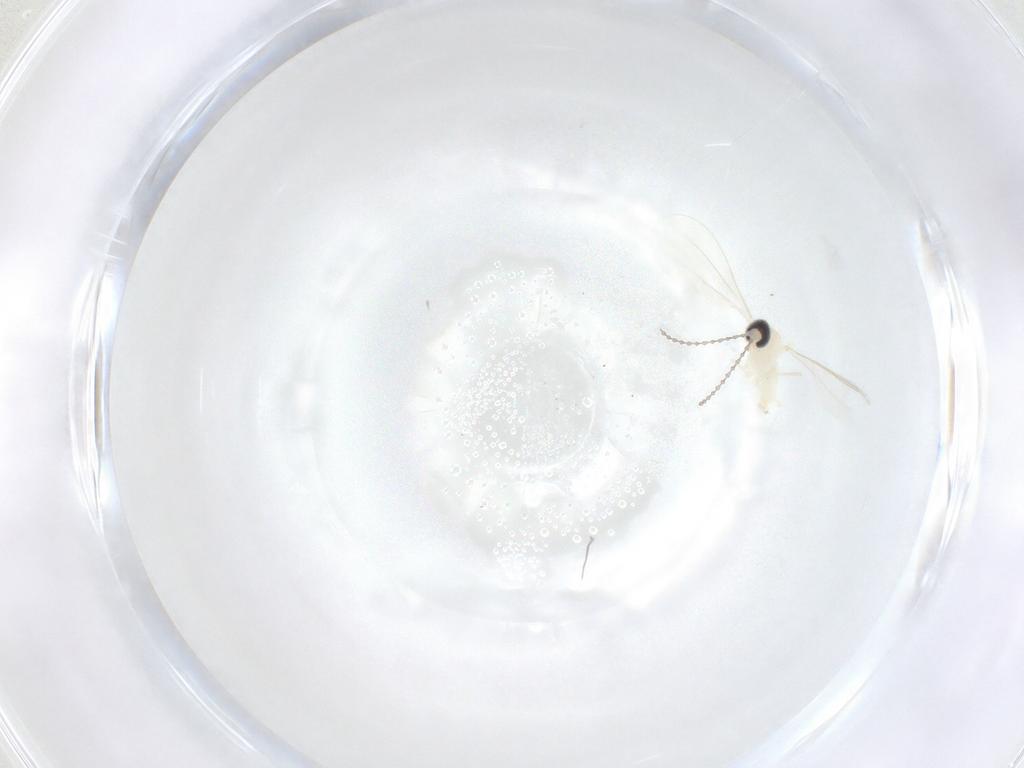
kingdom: Animalia
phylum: Arthropoda
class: Insecta
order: Diptera
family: Cecidomyiidae
